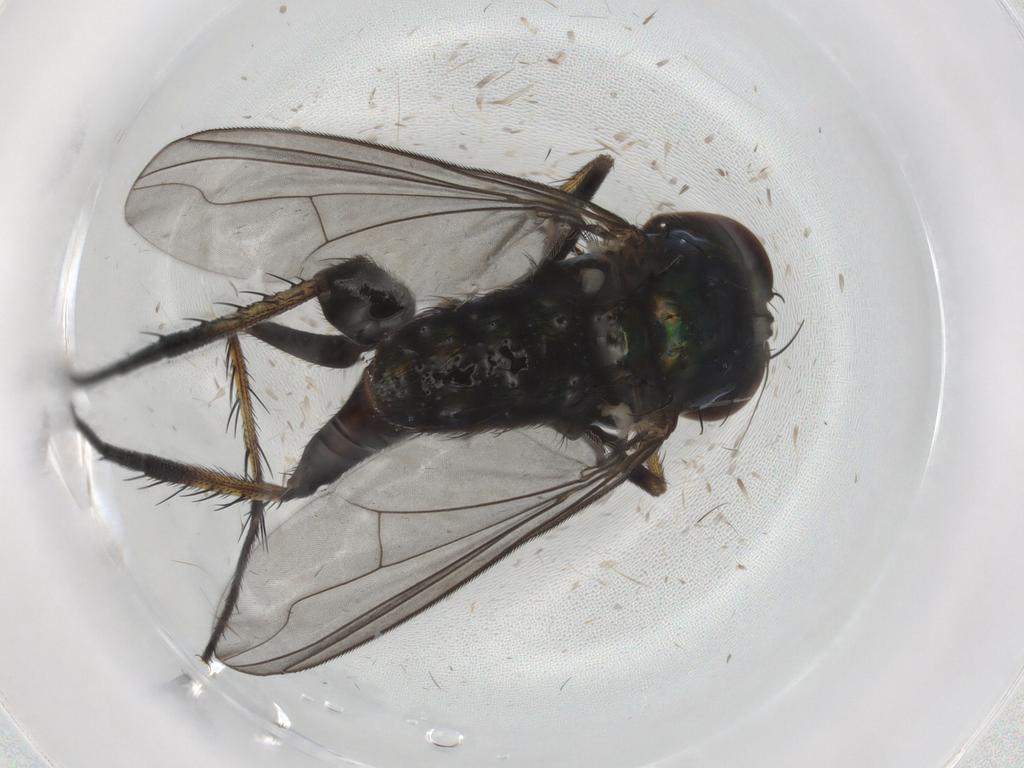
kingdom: Animalia
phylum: Arthropoda
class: Insecta
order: Diptera
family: Dolichopodidae
